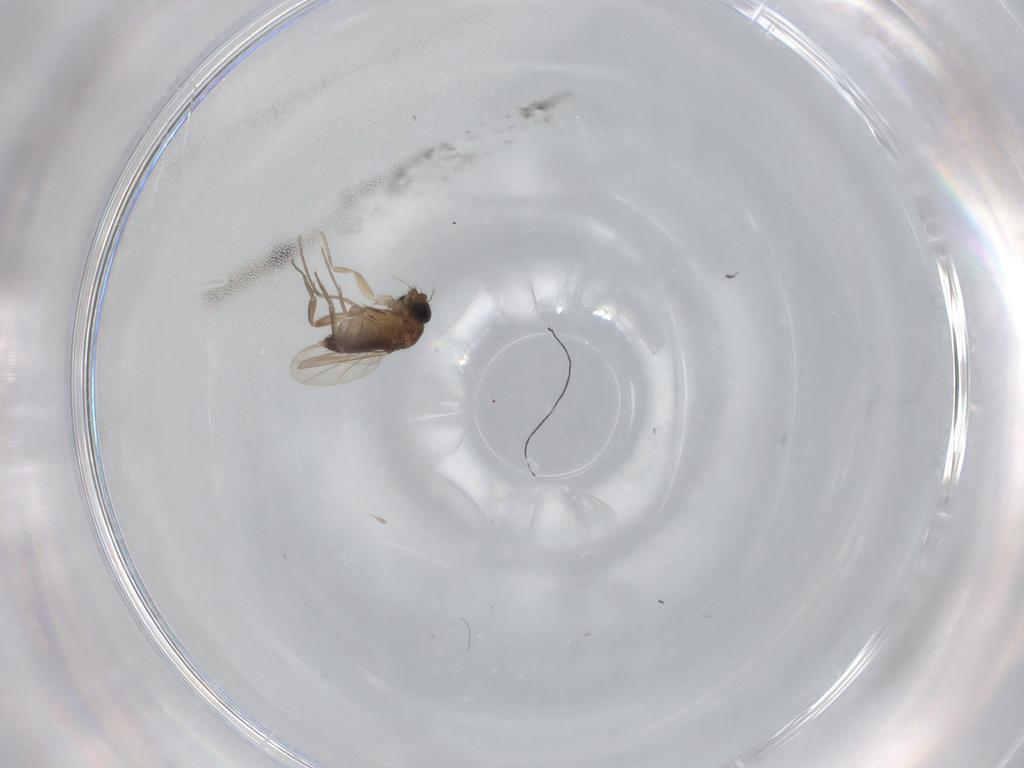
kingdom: Animalia
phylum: Arthropoda
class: Insecta
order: Diptera
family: Phoridae
